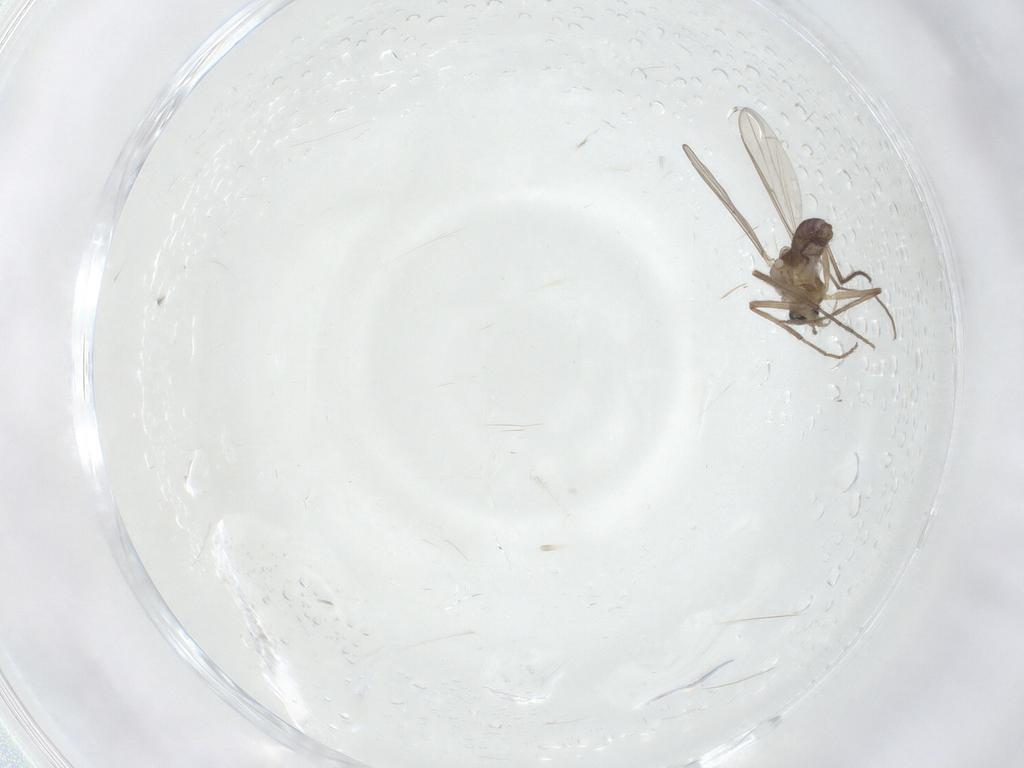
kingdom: Animalia
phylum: Arthropoda
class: Insecta
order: Diptera
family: Chironomidae
